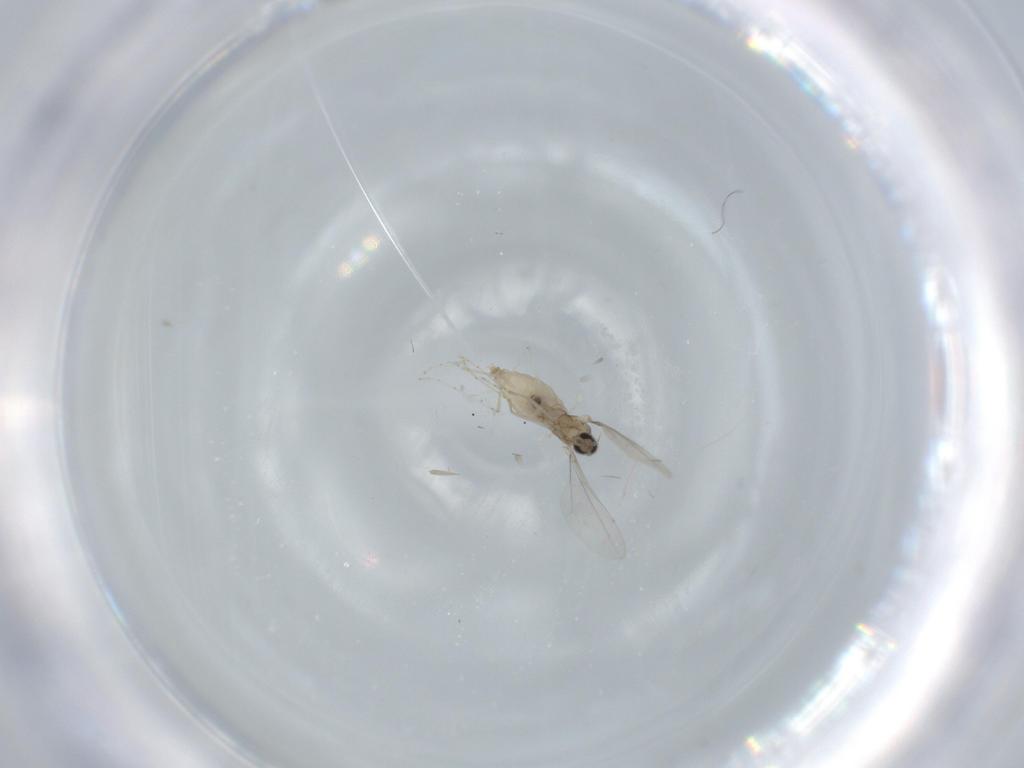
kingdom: Animalia
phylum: Arthropoda
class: Insecta
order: Diptera
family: Cecidomyiidae
